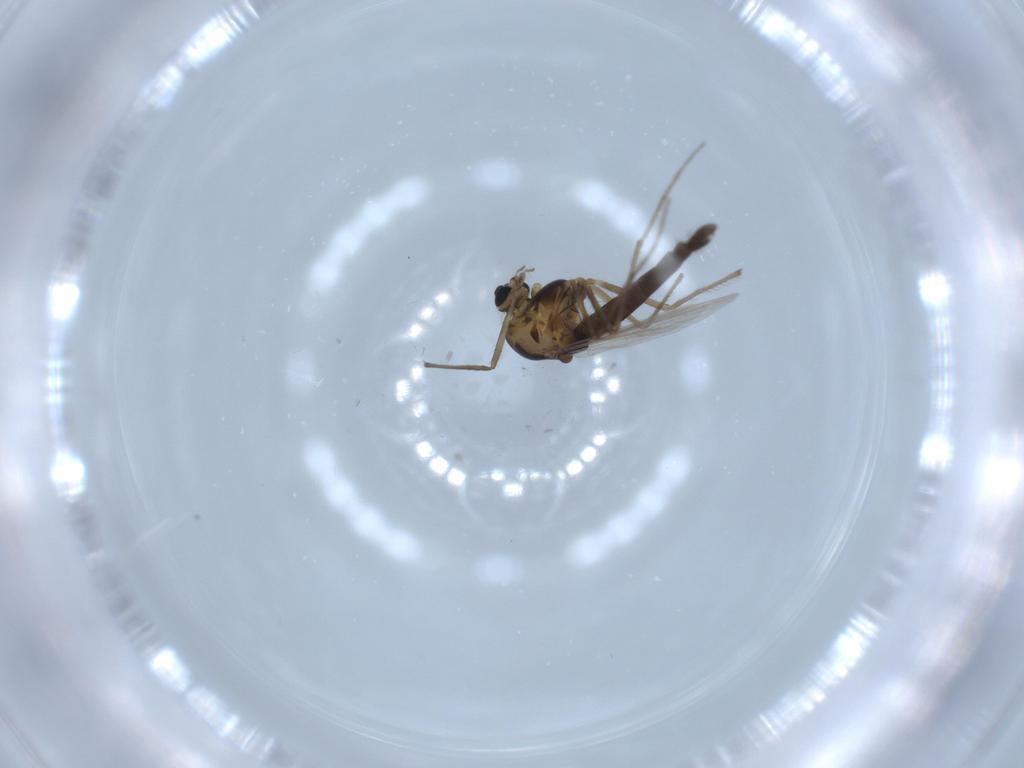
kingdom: Animalia
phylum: Arthropoda
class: Insecta
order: Diptera
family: Chironomidae
